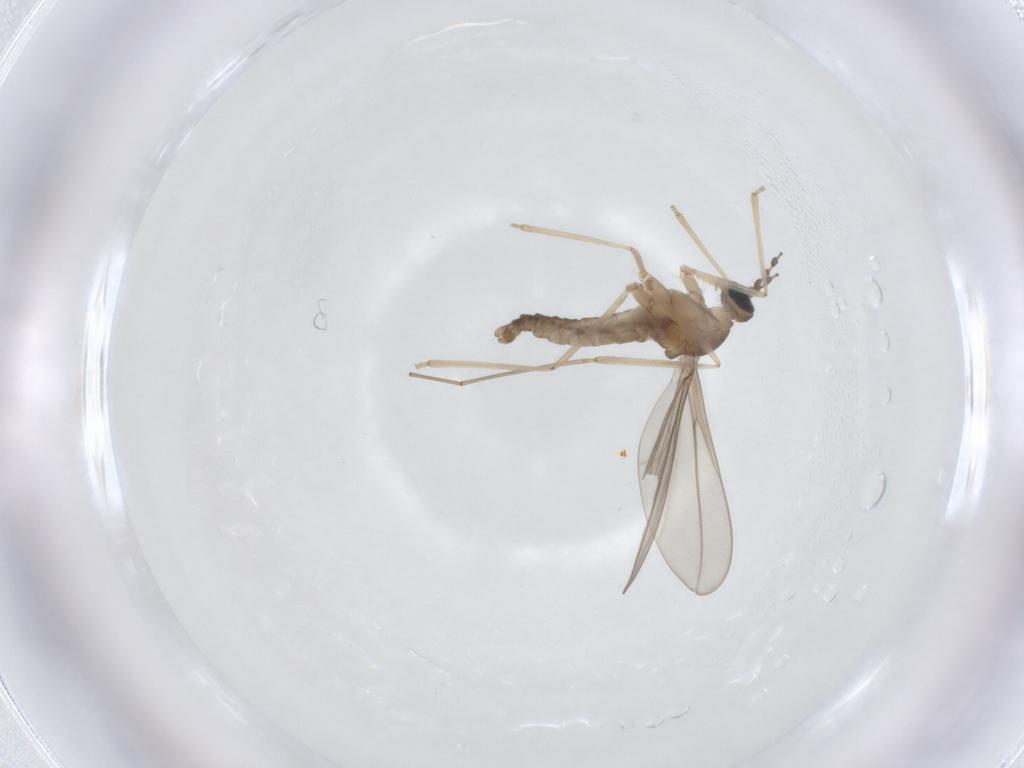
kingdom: Animalia
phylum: Arthropoda
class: Insecta
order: Diptera
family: Cecidomyiidae
